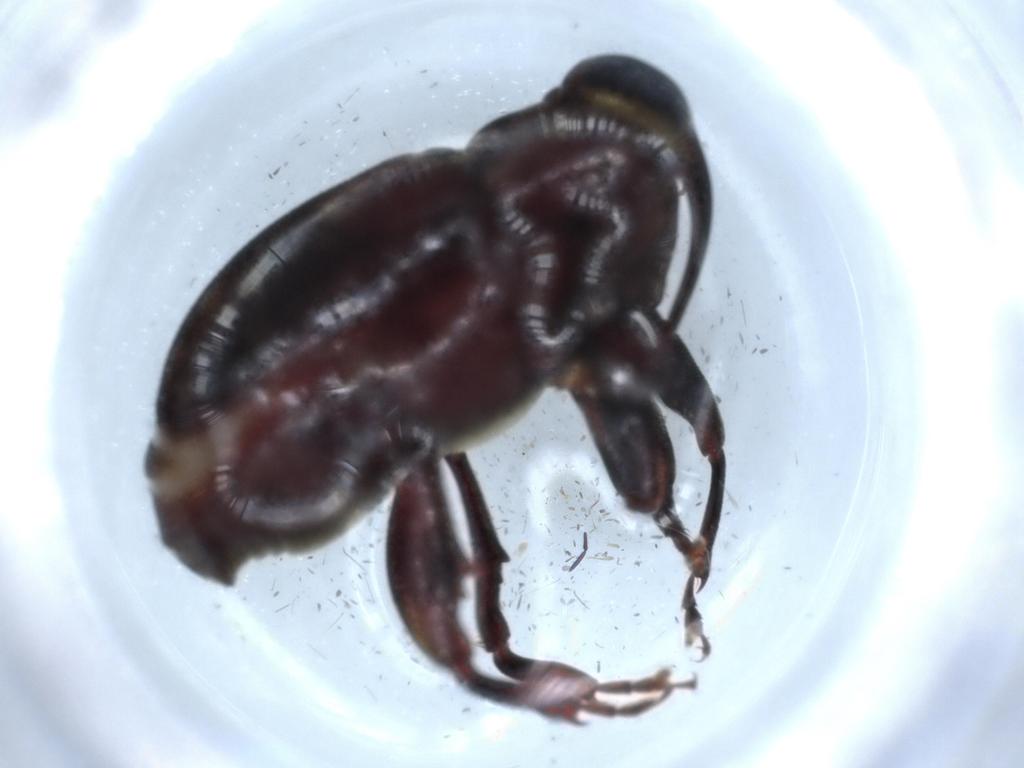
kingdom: Animalia
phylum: Arthropoda
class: Insecta
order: Coleoptera
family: Curculionidae
